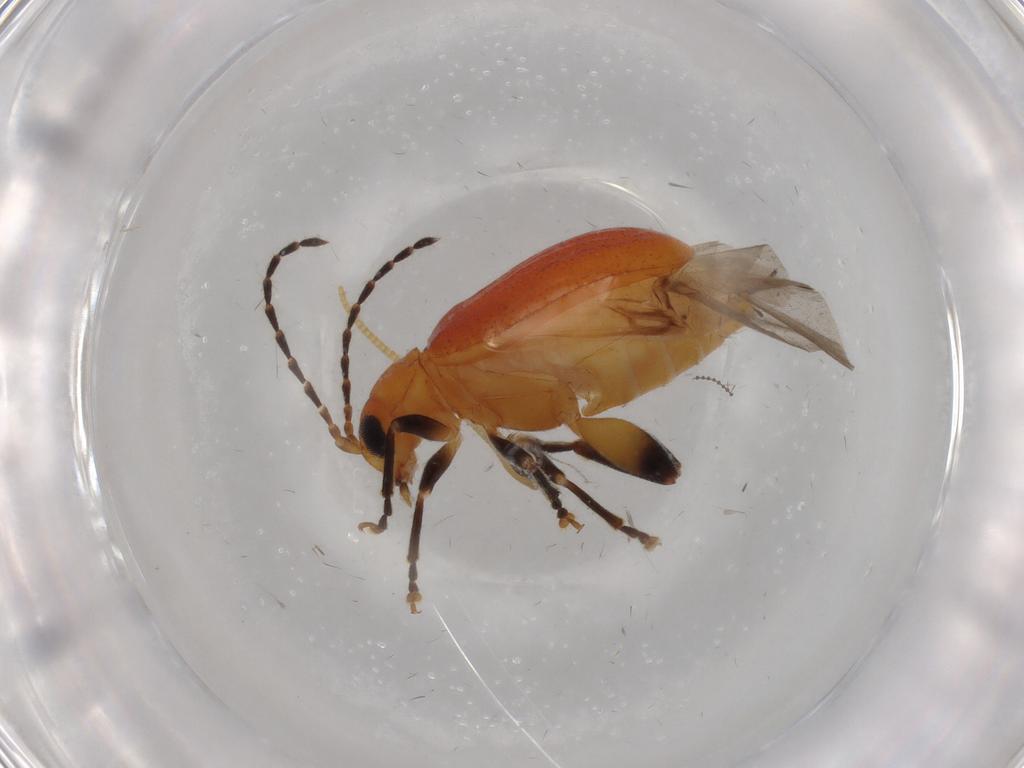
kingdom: Animalia
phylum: Arthropoda
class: Insecta
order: Coleoptera
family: Chrysomelidae
